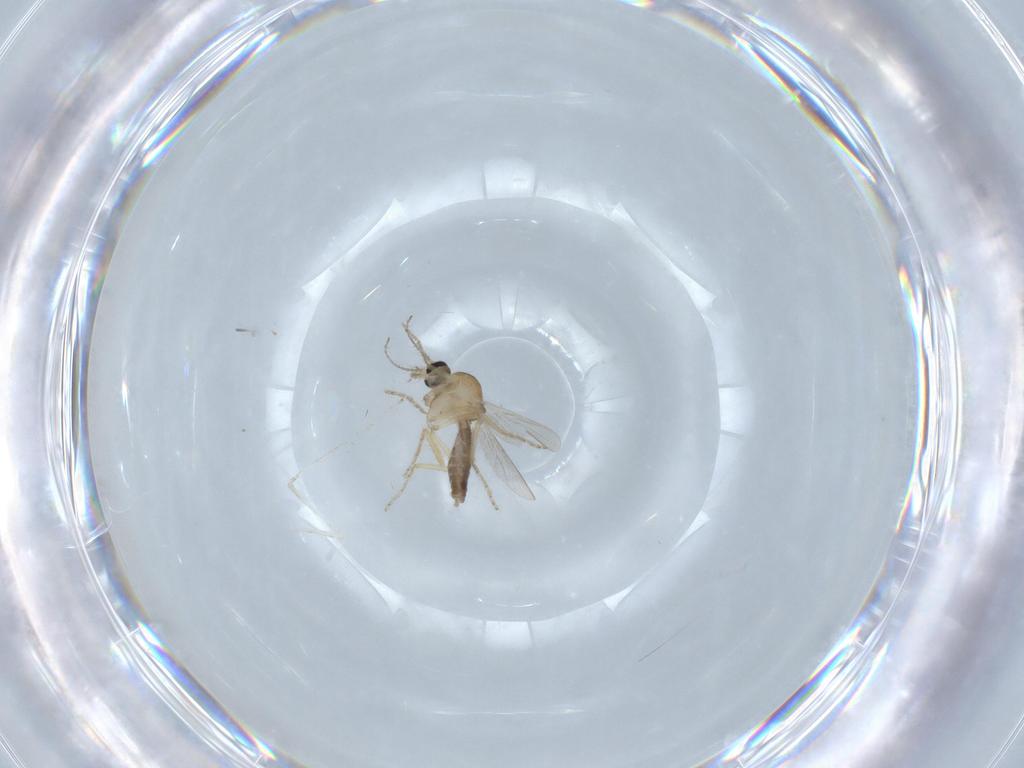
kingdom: Animalia
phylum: Arthropoda
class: Insecta
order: Diptera
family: Ceratopogonidae
